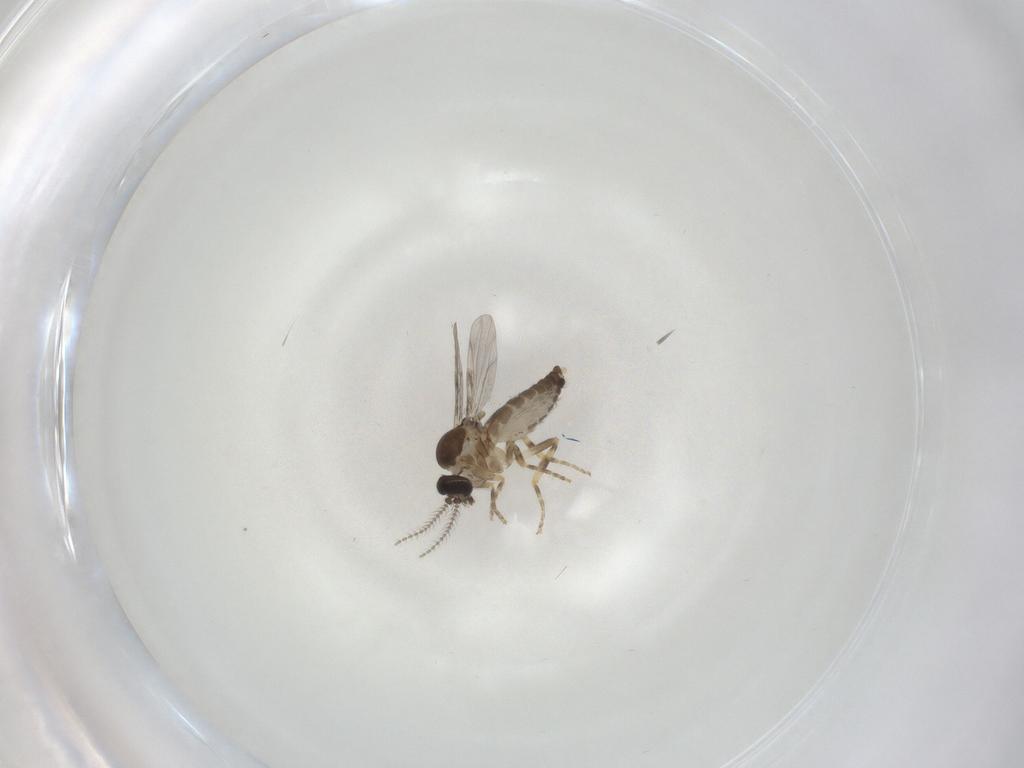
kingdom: Animalia
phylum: Arthropoda
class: Insecta
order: Diptera
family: Ceratopogonidae
